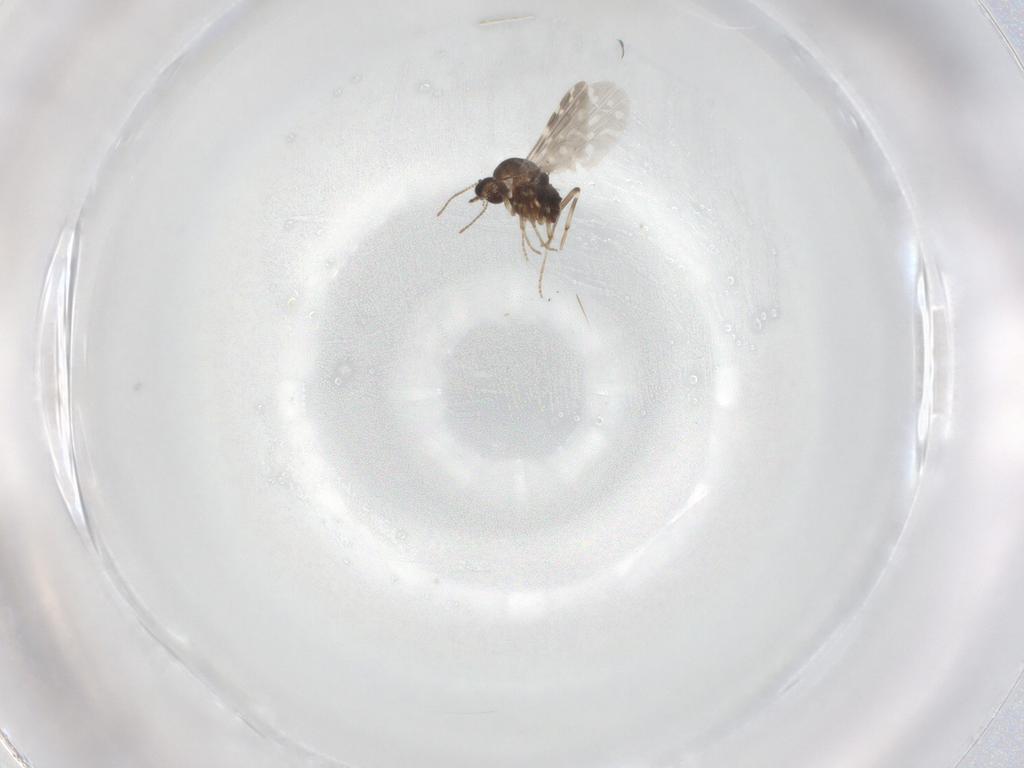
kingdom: Animalia
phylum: Arthropoda
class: Insecta
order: Diptera
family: Ceratopogonidae
